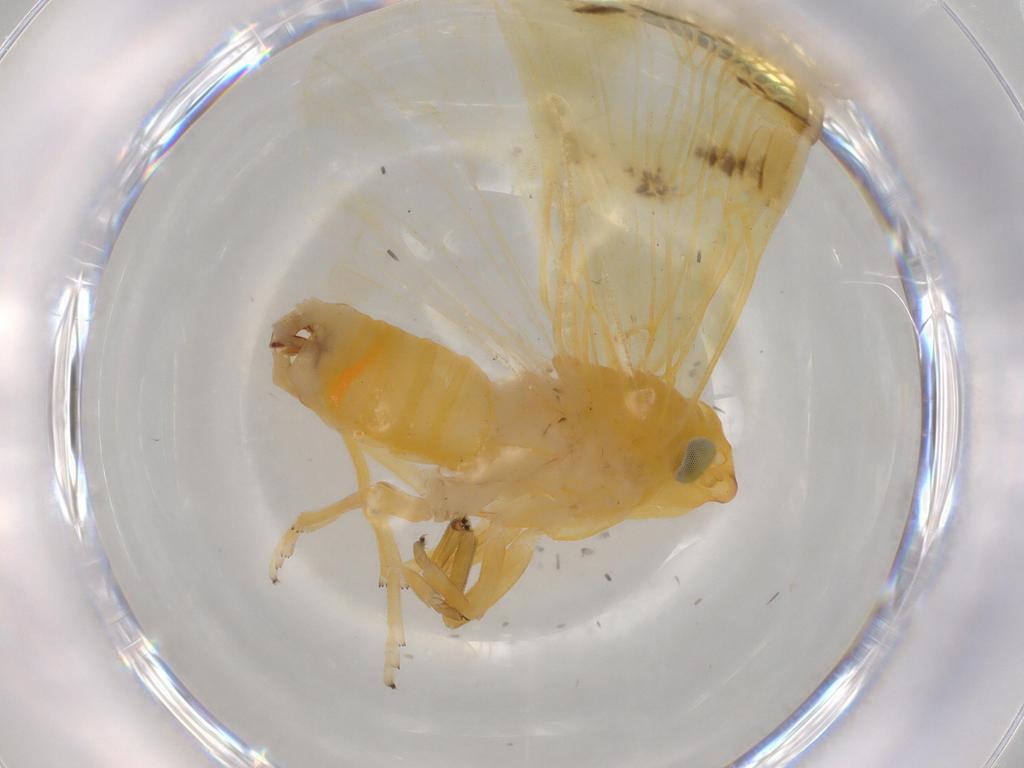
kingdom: Animalia
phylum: Arthropoda
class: Insecta
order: Hemiptera
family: Cixiidae
